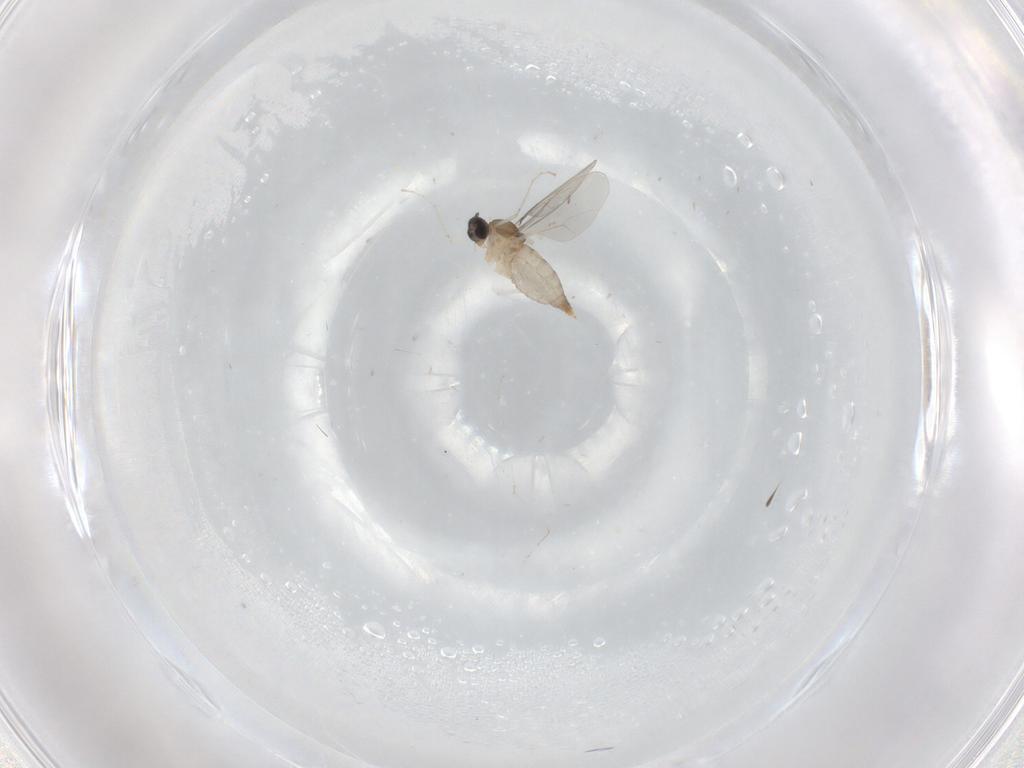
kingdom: Animalia
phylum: Arthropoda
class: Insecta
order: Diptera
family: Cecidomyiidae
